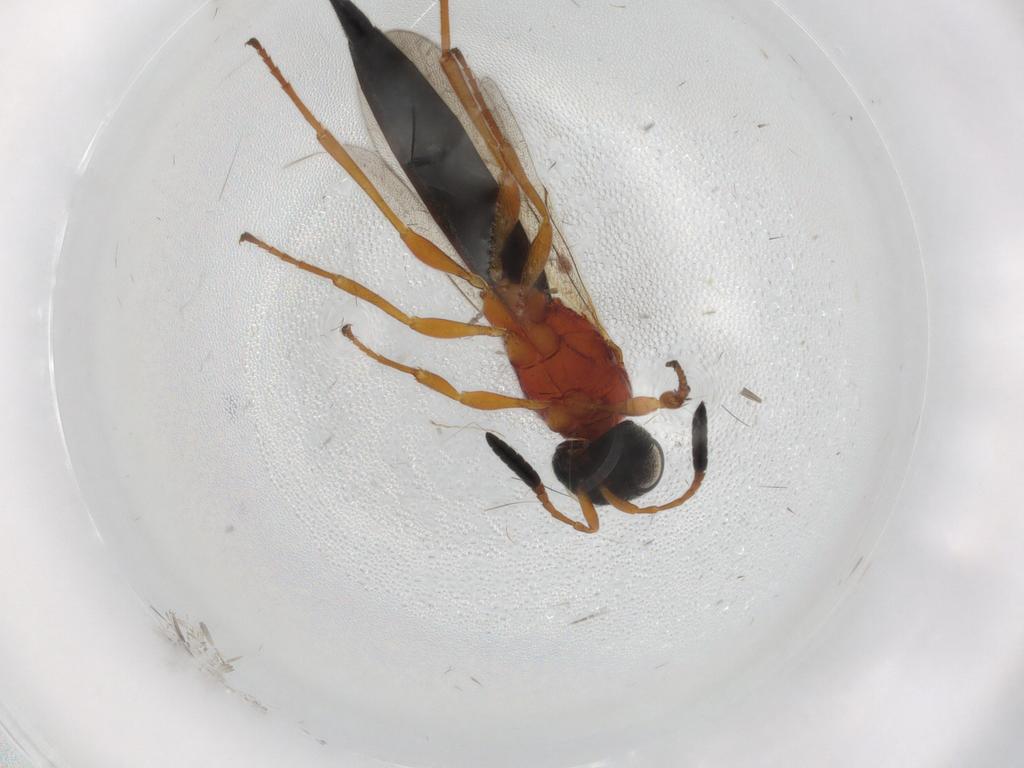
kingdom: Animalia
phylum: Arthropoda
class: Insecta
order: Hymenoptera
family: Scelionidae
